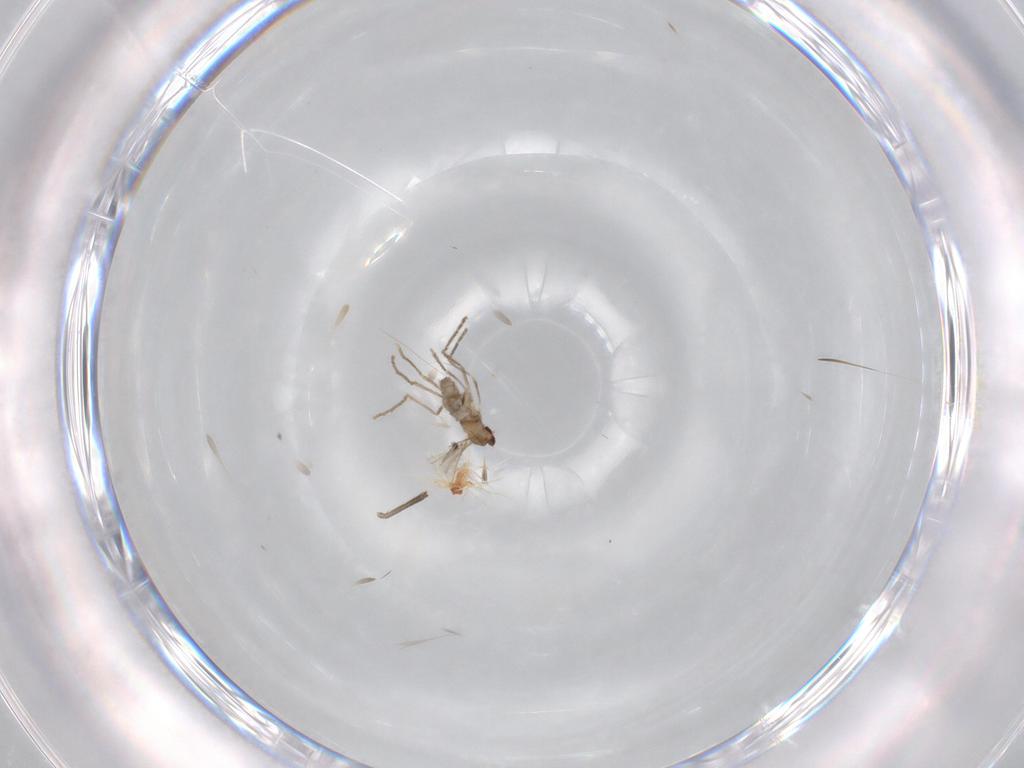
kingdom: Animalia
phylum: Arthropoda
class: Insecta
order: Diptera
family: Cecidomyiidae
